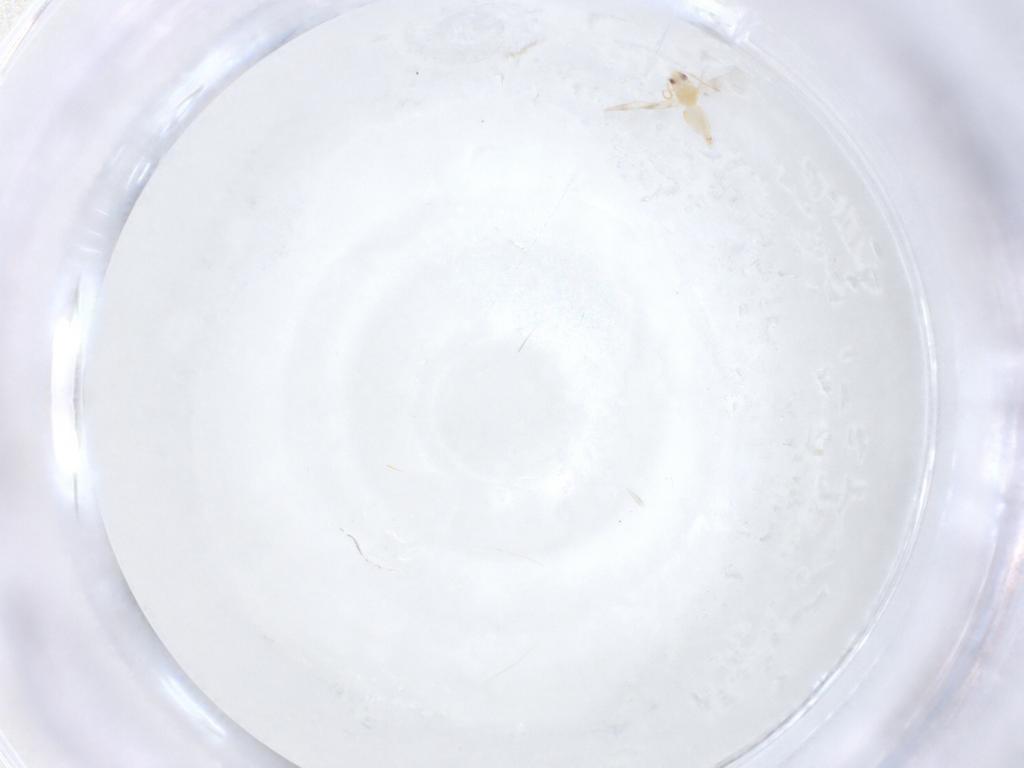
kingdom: Animalia
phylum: Arthropoda
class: Insecta
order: Hemiptera
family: Aleyrodidae
